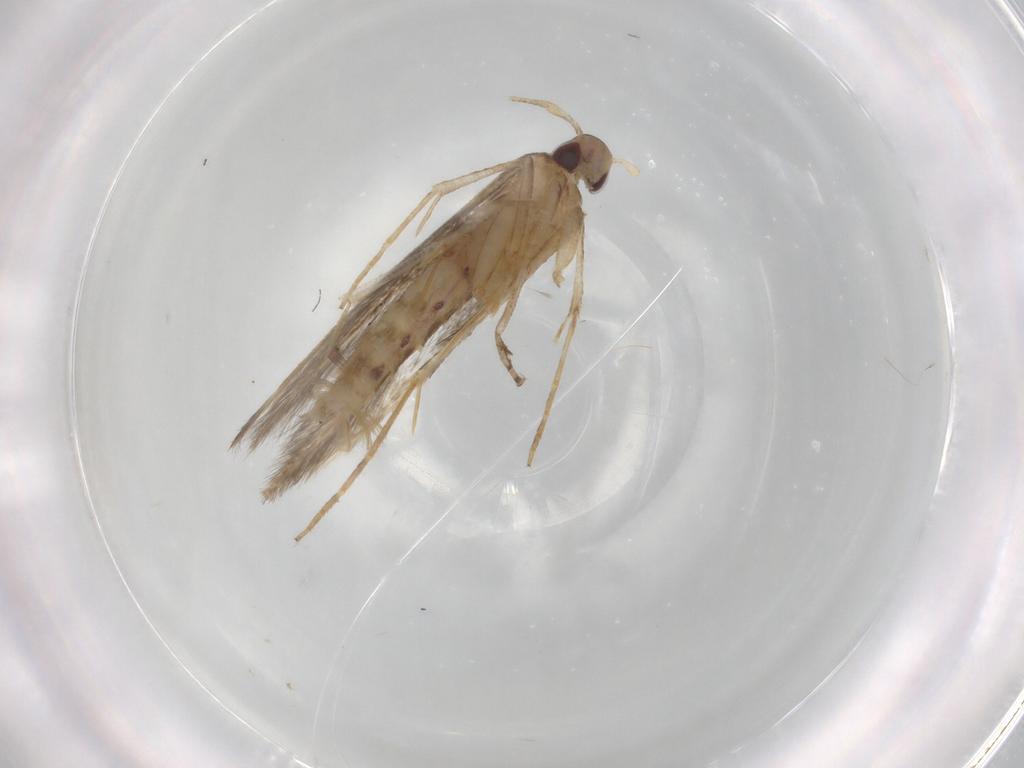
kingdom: Animalia
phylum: Arthropoda
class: Insecta
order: Lepidoptera
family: Cosmopterigidae
